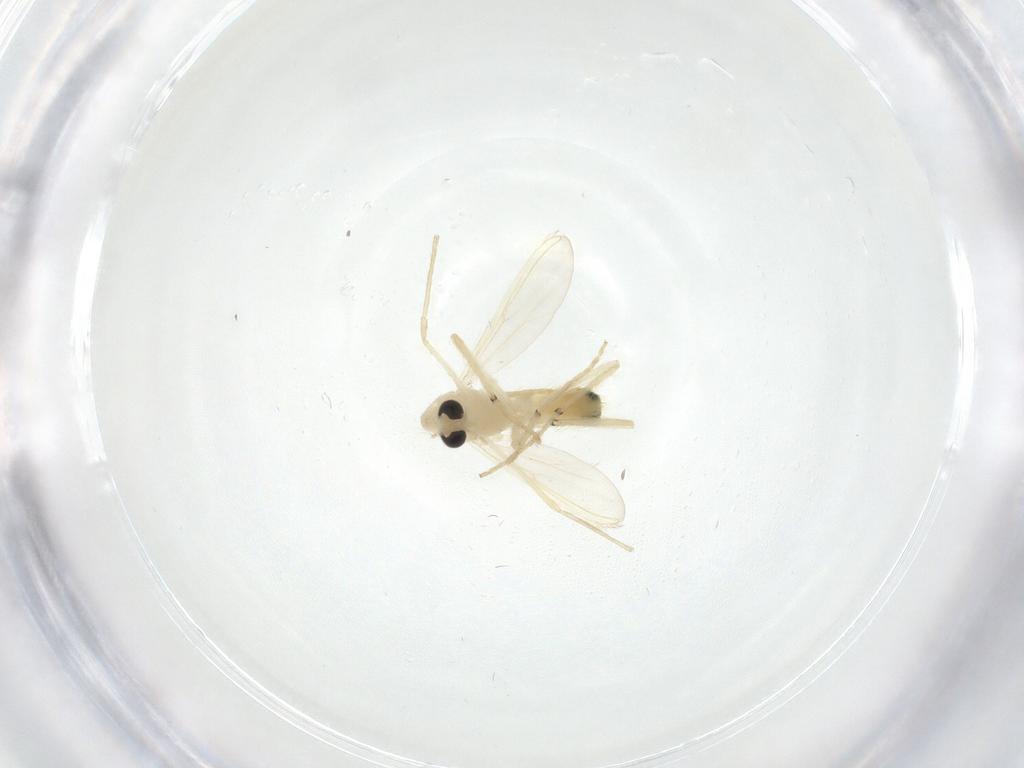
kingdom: Animalia
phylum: Arthropoda
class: Insecta
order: Diptera
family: Chironomidae
